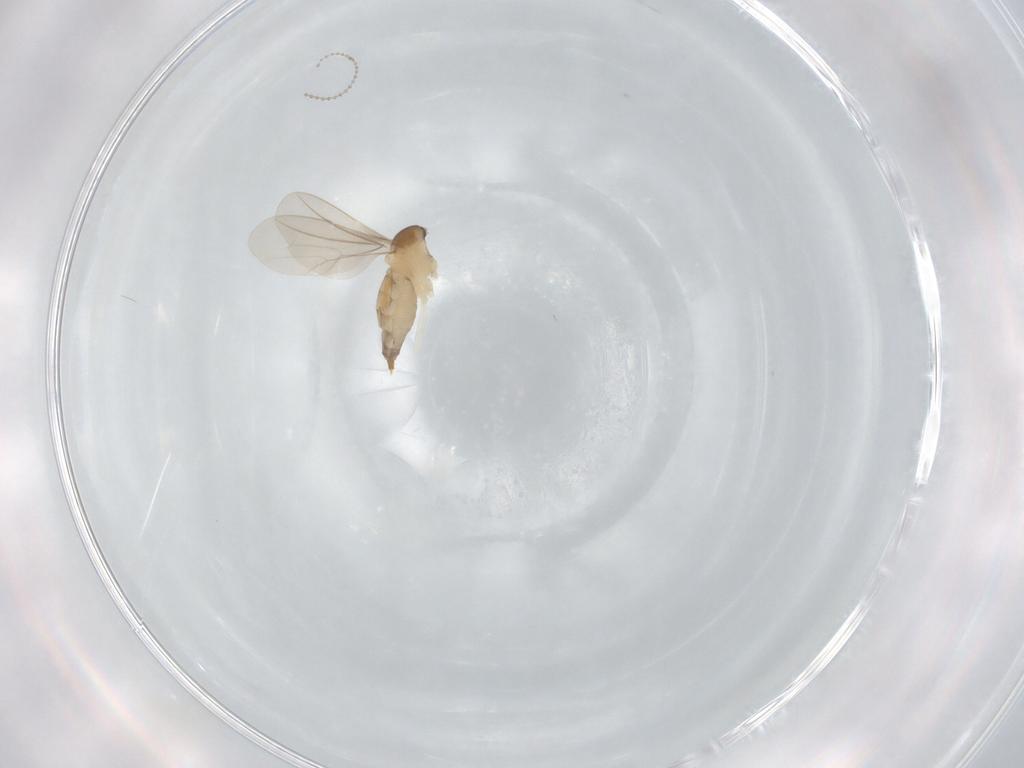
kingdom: Animalia
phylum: Arthropoda
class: Insecta
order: Diptera
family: Cecidomyiidae
